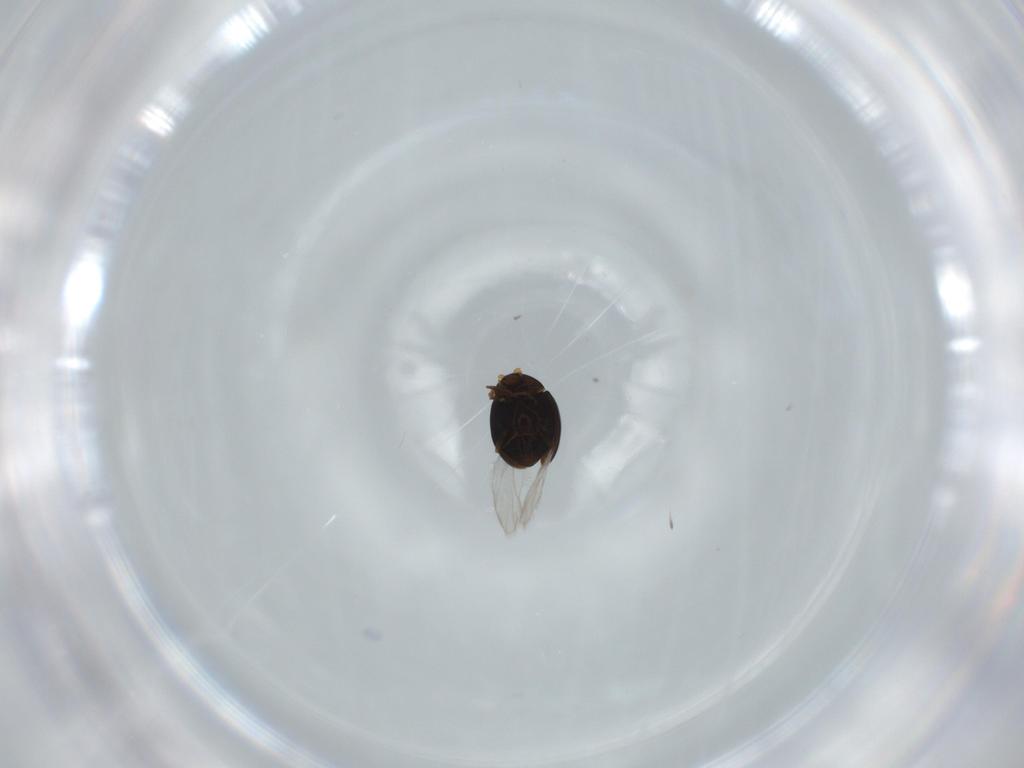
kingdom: Animalia
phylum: Arthropoda
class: Insecta
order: Coleoptera
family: Corylophidae
